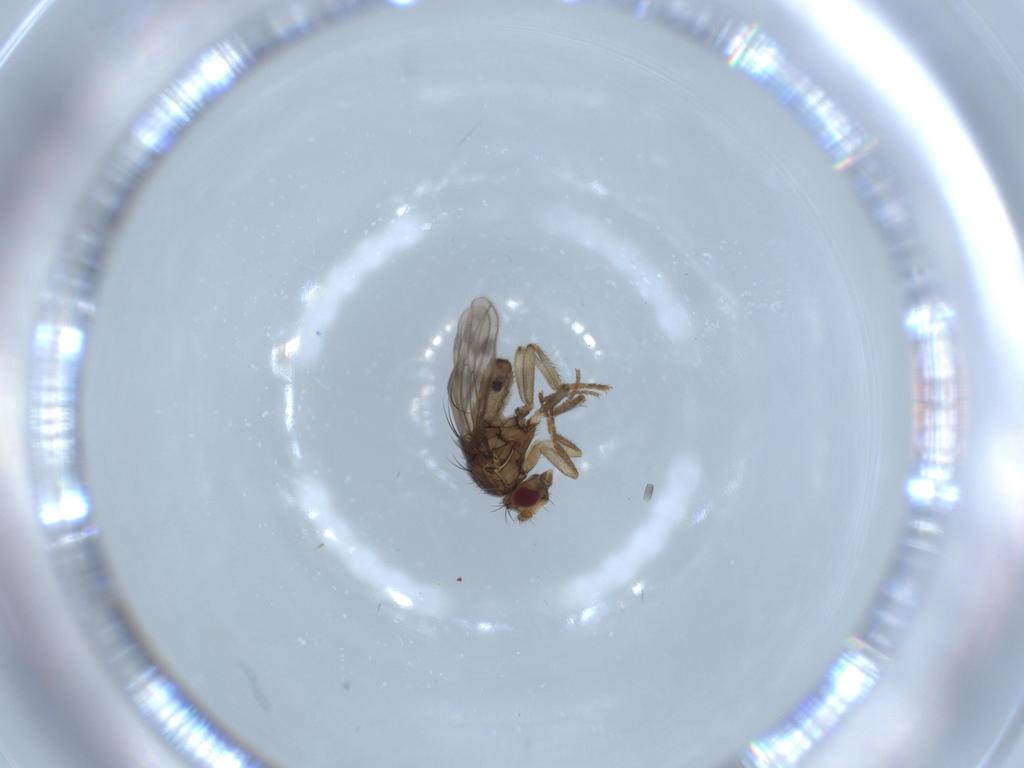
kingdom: Animalia
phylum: Arthropoda
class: Insecta
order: Diptera
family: Sphaeroceridae
